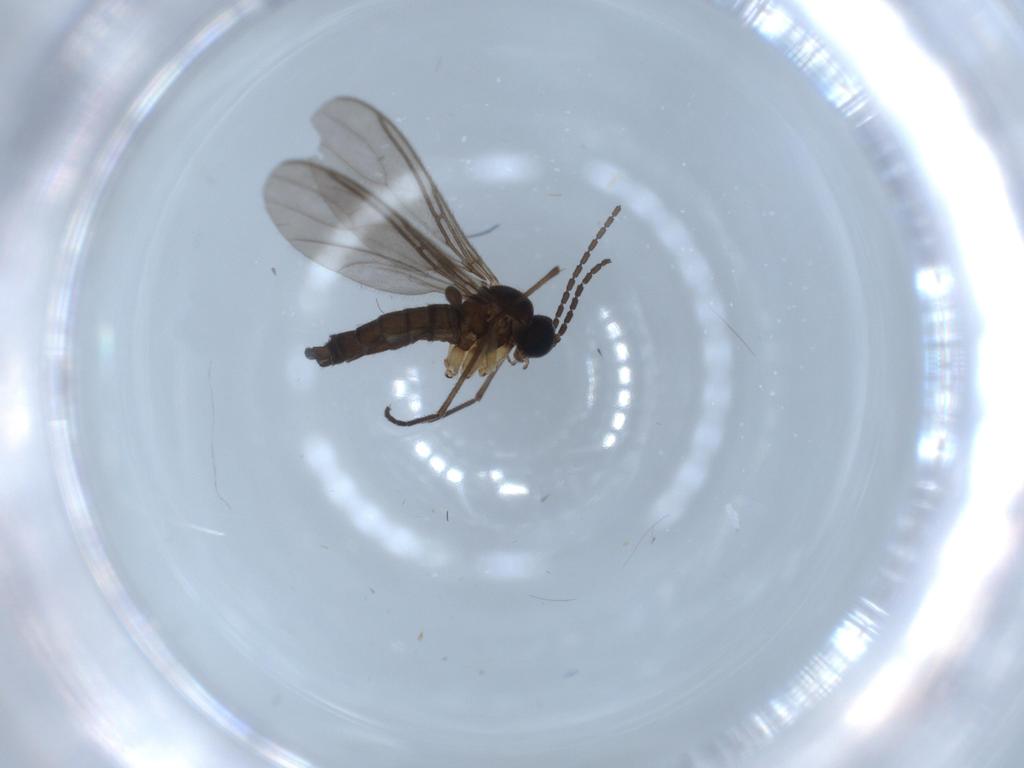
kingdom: Animalia
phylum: Arthropoda
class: Insecta
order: Diptera
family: Sciaridae
